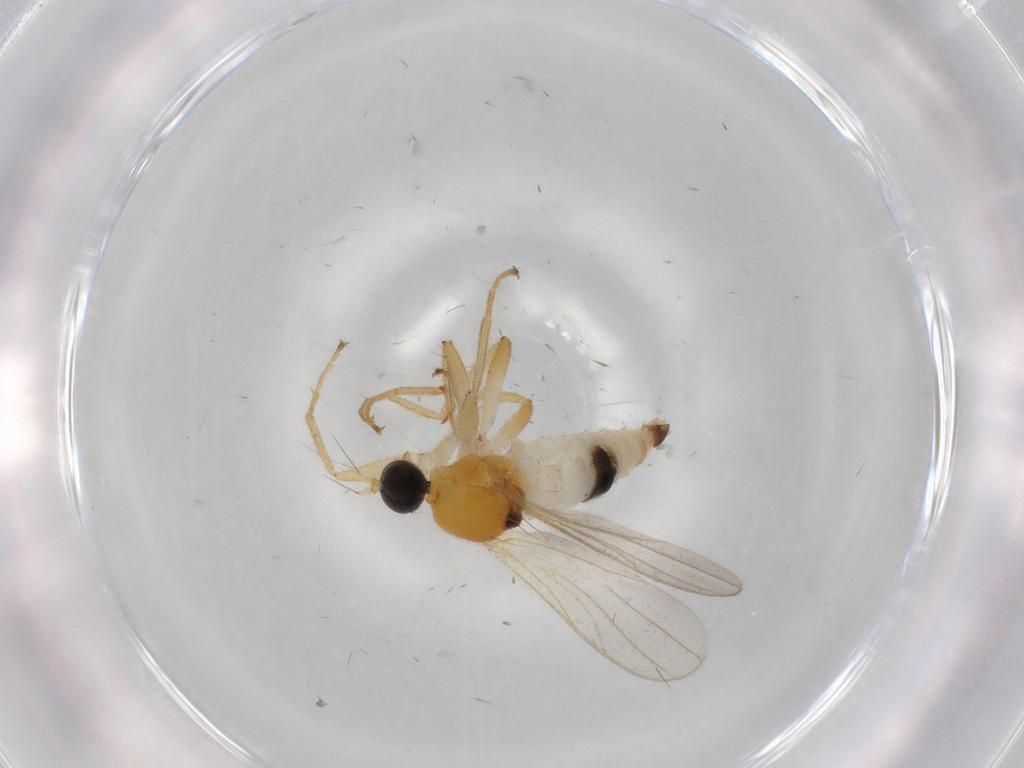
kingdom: Animalia
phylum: Arthropoda
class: Insecta
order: Diptera
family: Hybotidae
